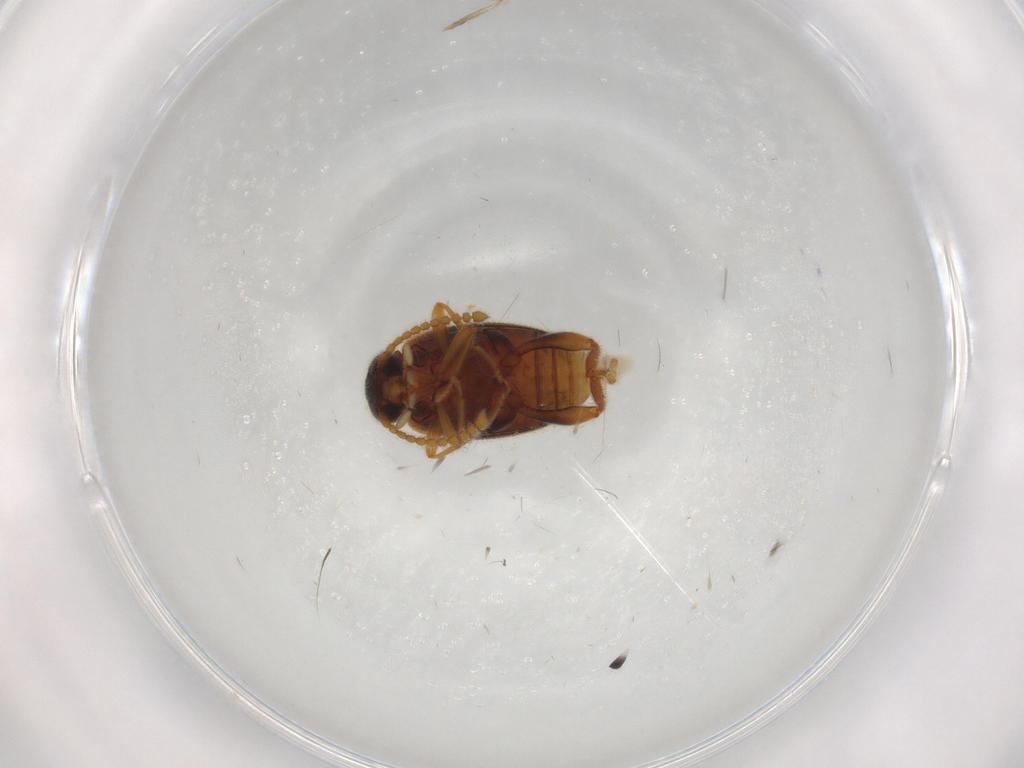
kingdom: Animalia
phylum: Arthropoda
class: Insecta
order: Coleoptera
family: Aderidae
